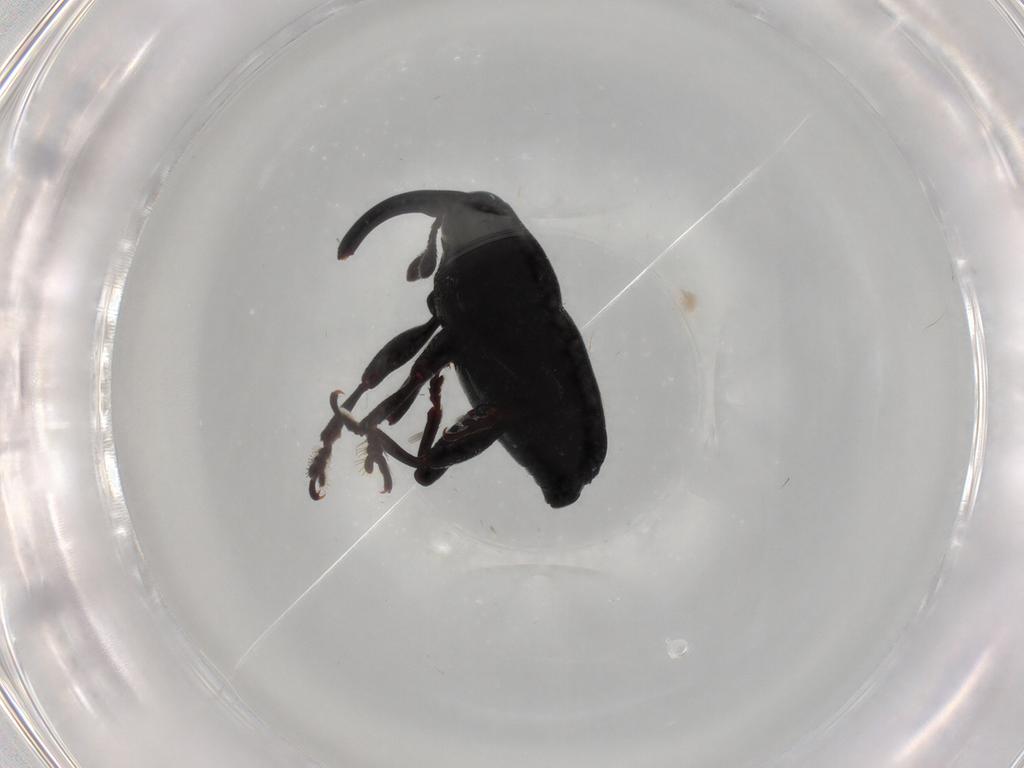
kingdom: Animalia
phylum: Arthropoda
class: Insecta
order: Coleoptera
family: Curculionidae
